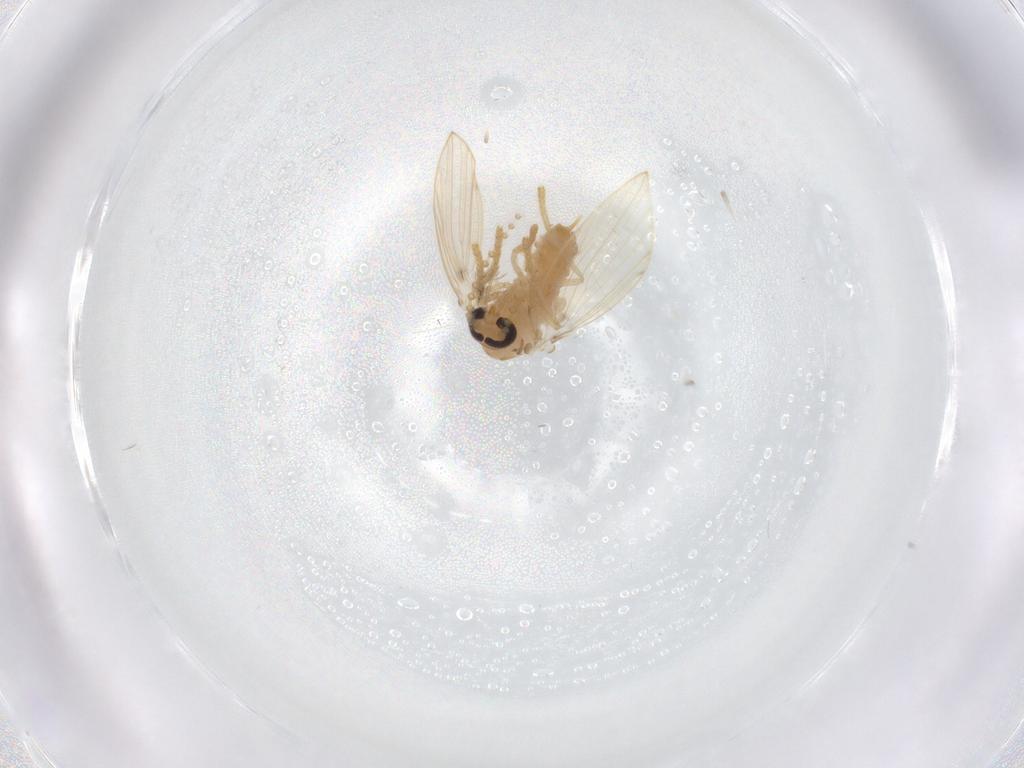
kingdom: Animalia
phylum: Arthropoda
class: Insecta
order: Diptera
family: Psychodidae
